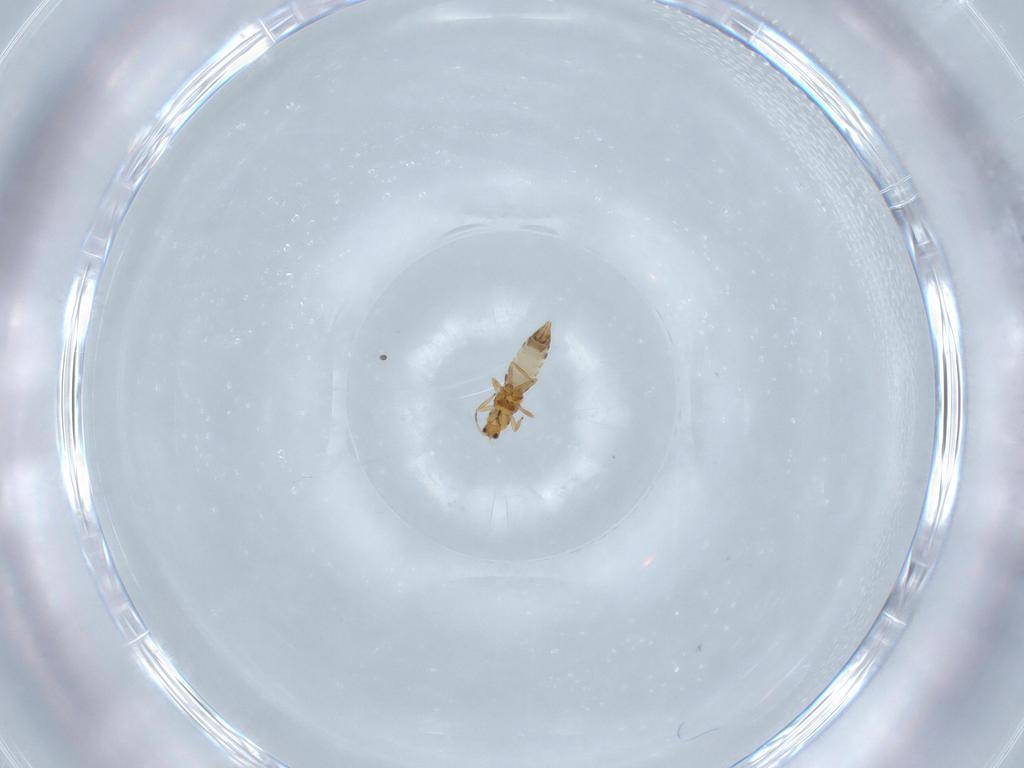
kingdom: Animalia
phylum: Arthropoda
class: Insecta
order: Thysanoptera
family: Thripidae
